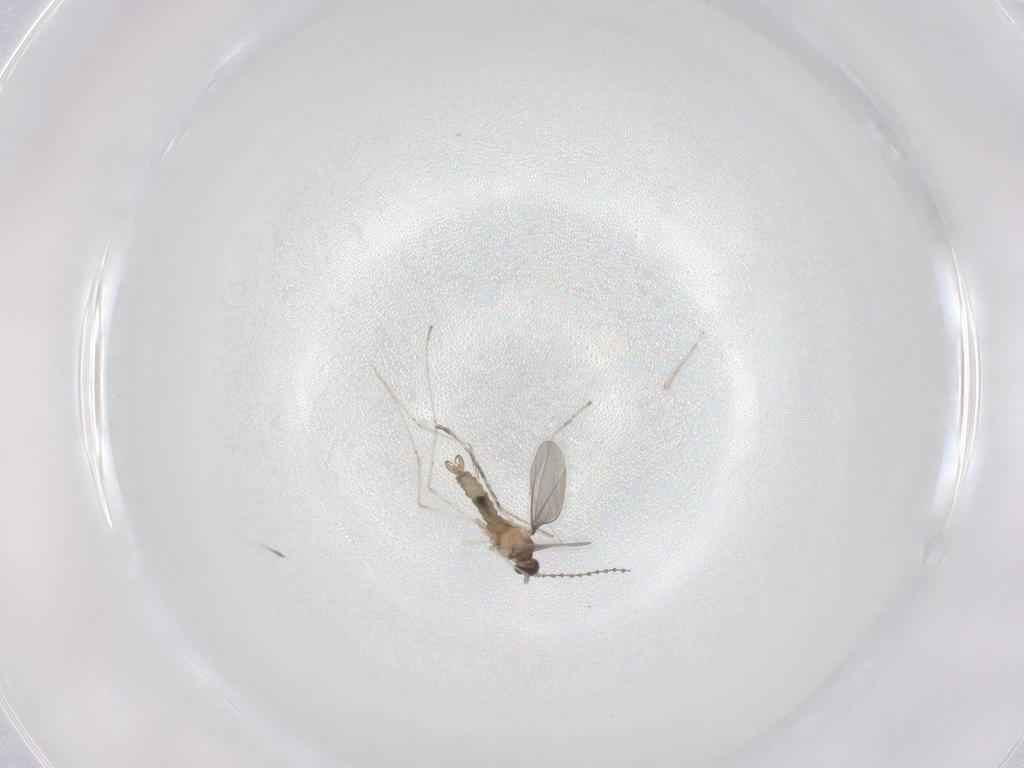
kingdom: Animalia
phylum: Arthropoda
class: Insecta
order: Diptera
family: Cecidomyiidae
